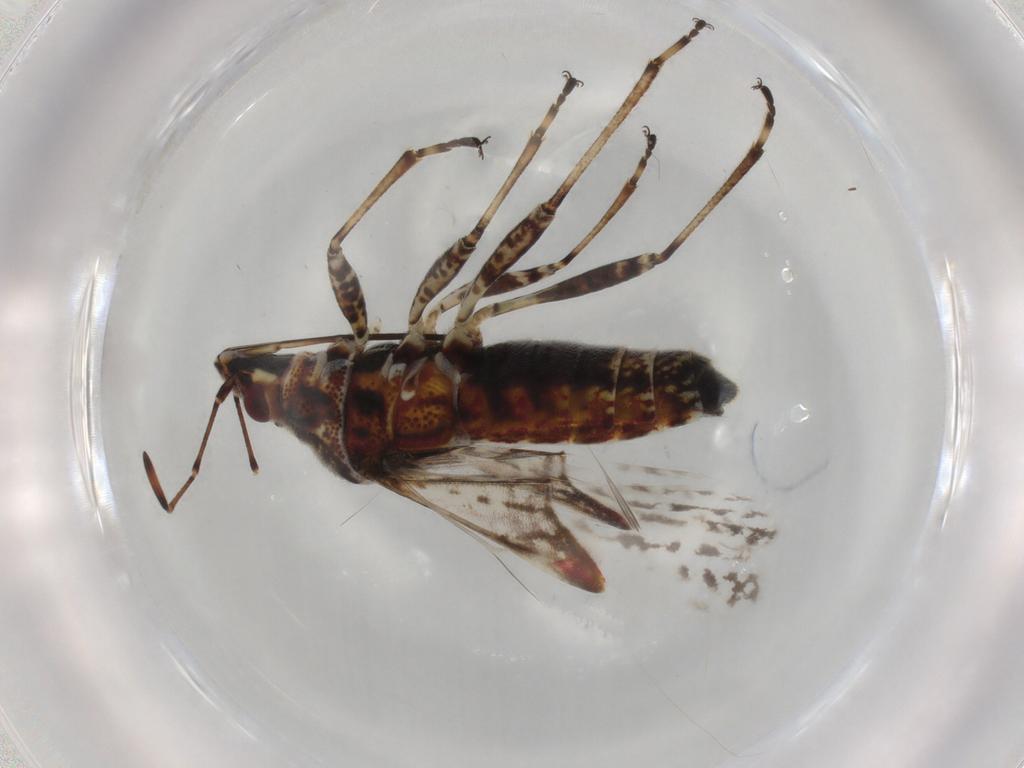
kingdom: Animalia
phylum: Arthropoda
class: Insecta
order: Hemiptera
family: Lygaeidae
